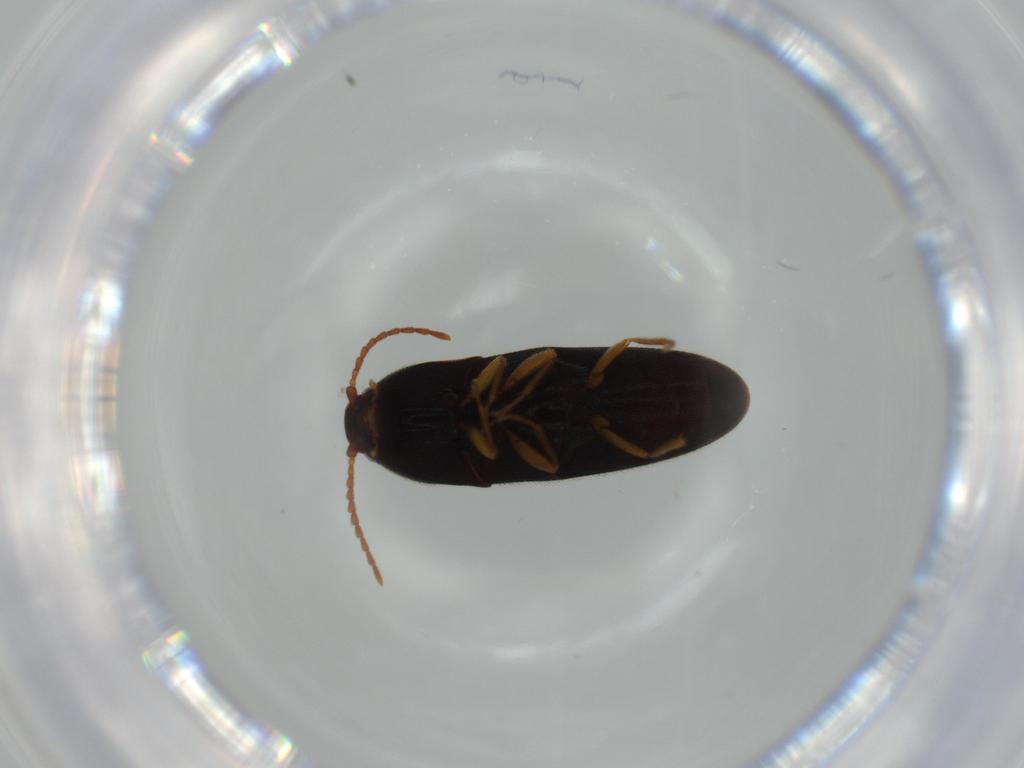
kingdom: Animalia
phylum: Arthropoda
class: Insecta
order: Coleoptera
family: Elateridae
